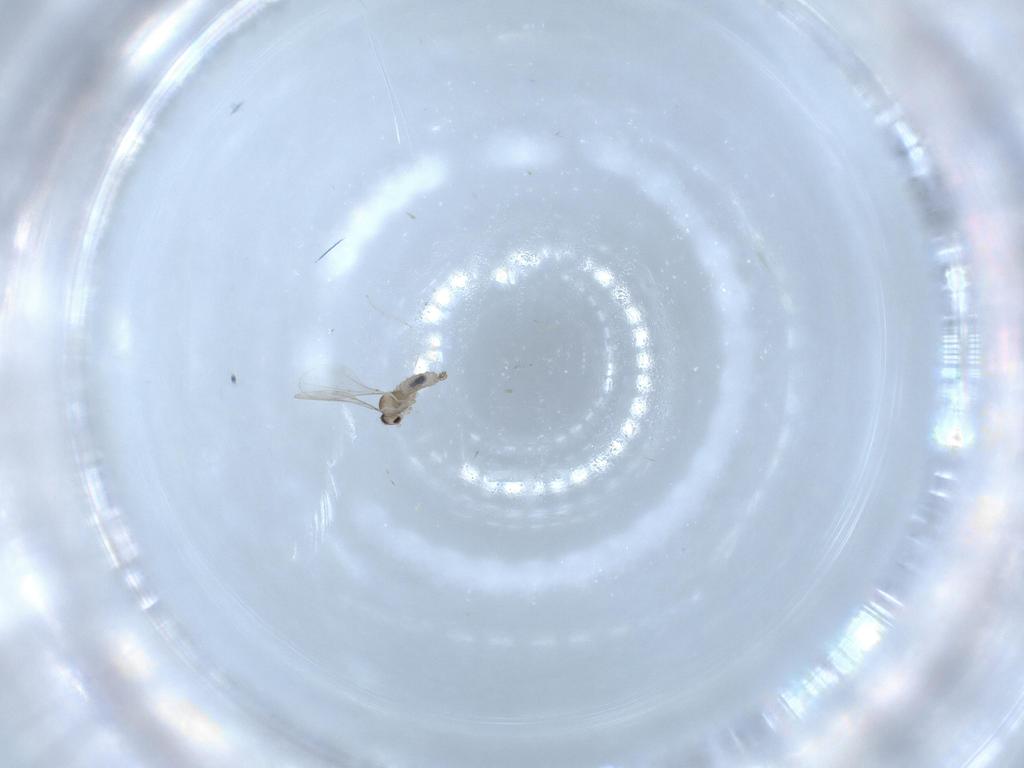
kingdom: Animalia
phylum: Arthropoda
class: Insecta
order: Diptera
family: Cecidomyiidae
